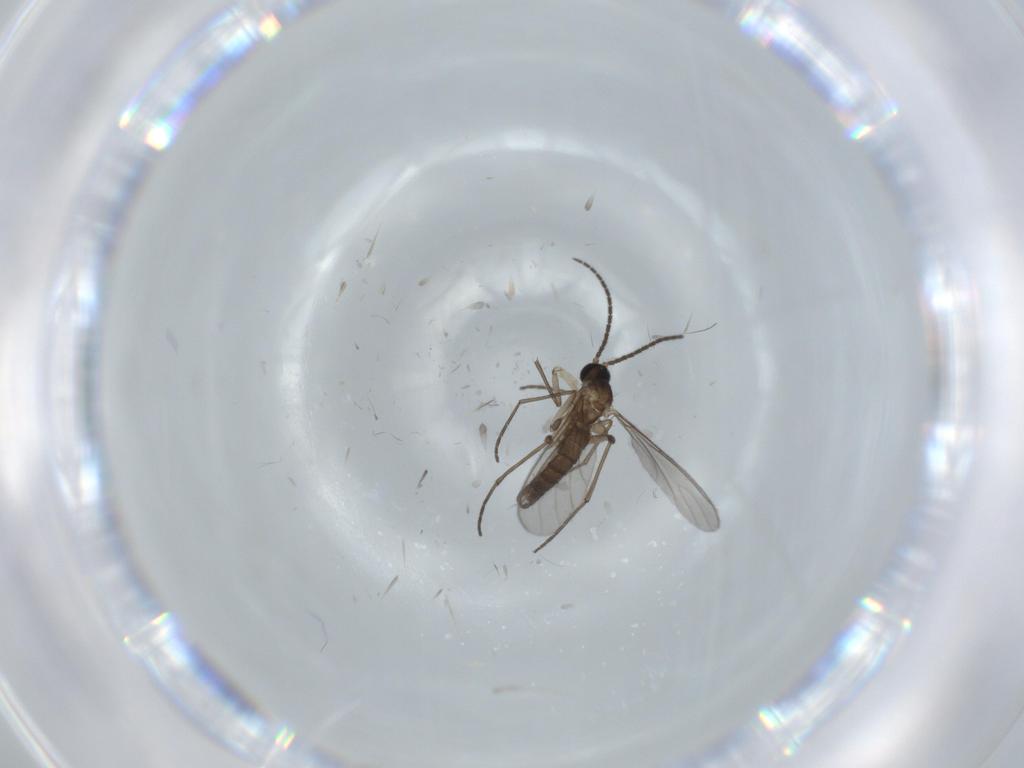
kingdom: Animalia
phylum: Arthropoda
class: Insecta
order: Diptera
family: Sciaridae
